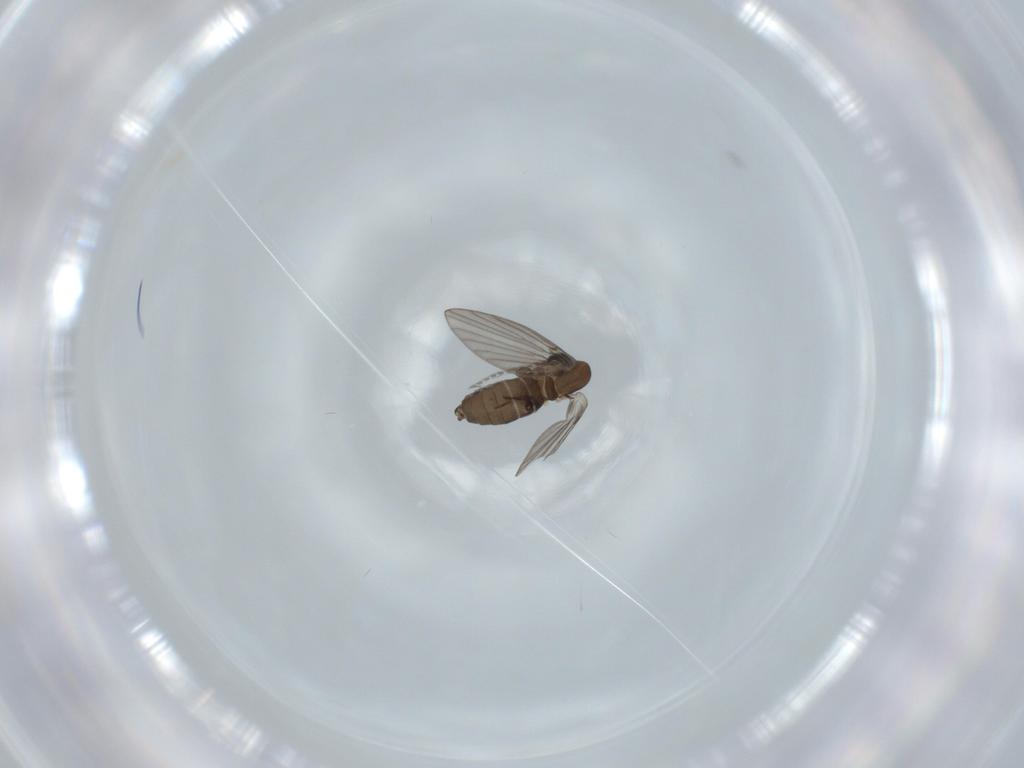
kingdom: Animalia
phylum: Arthropoda
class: Insecta
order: Diptera
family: Psychodidae
